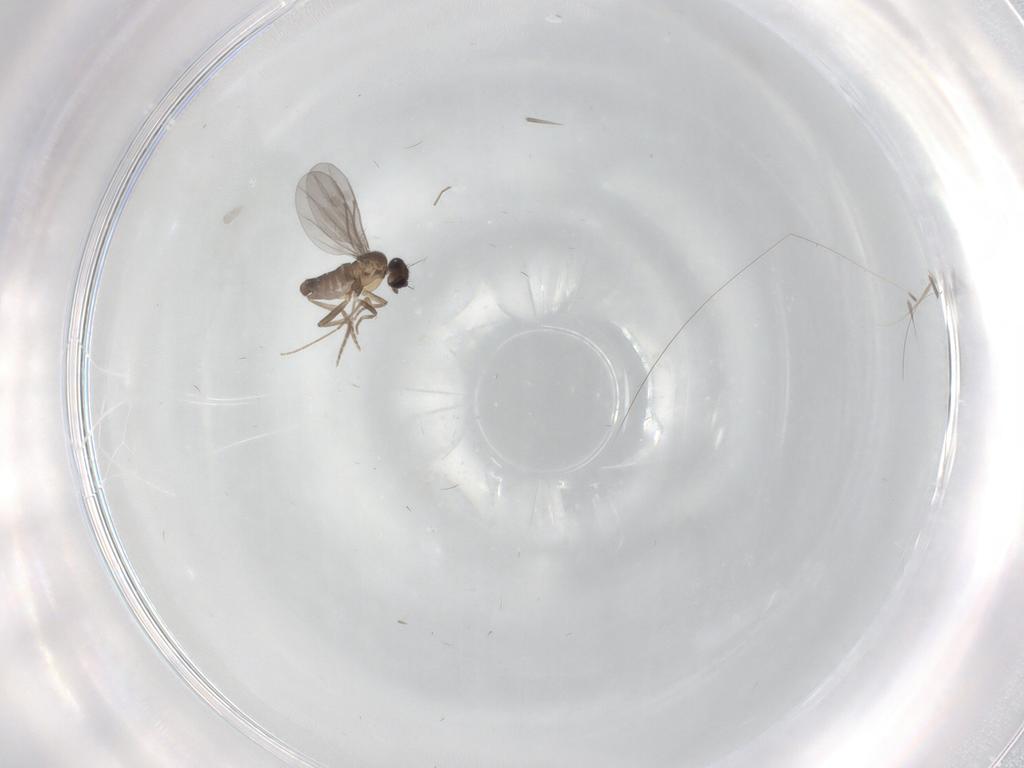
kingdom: Animalia
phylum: Arthropoda
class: Insecta
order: Diptera
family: Chironomidae
